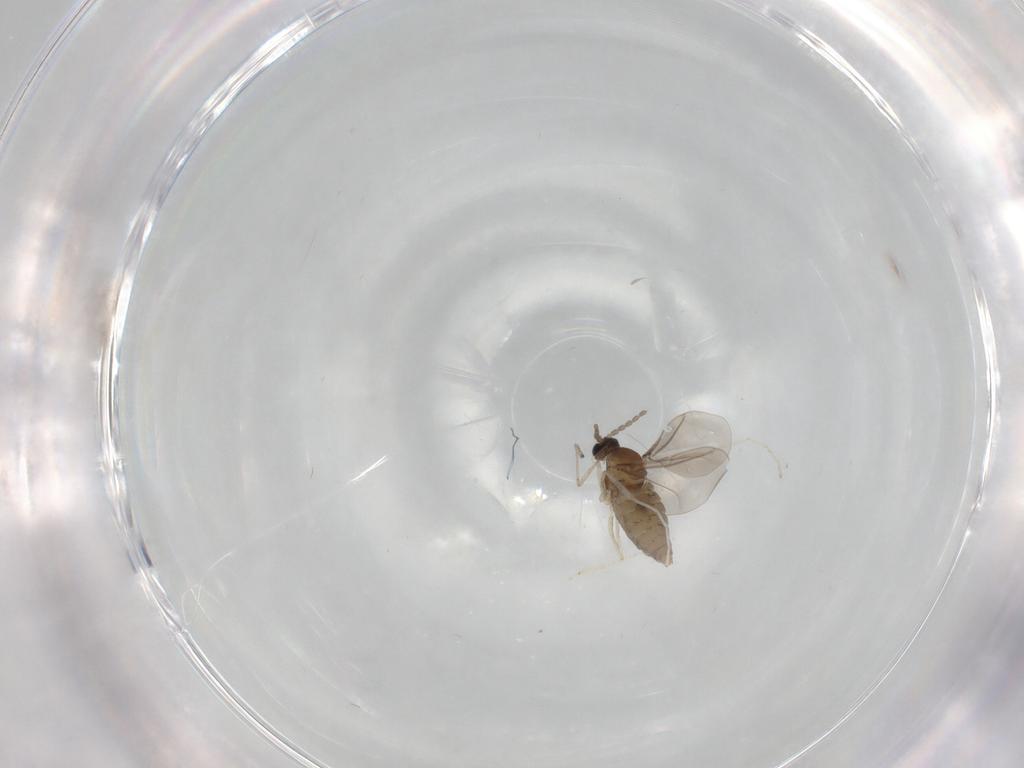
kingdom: Animalia
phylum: Arthropoda
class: Insecta
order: Diptera
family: Cecidomyiidae
